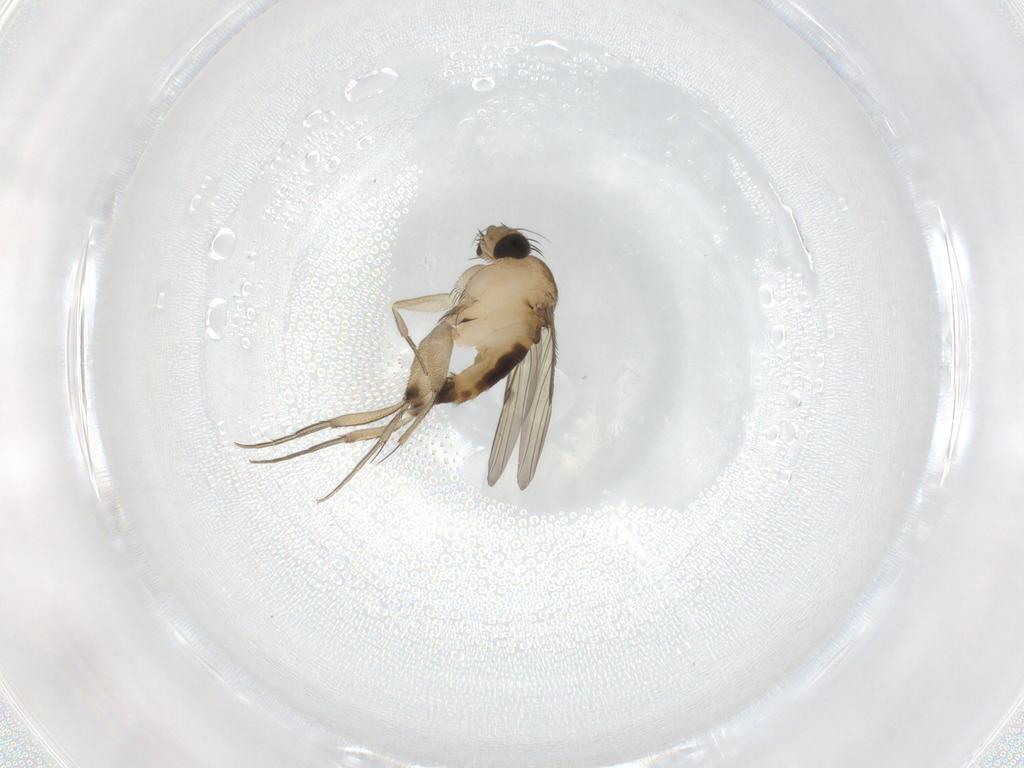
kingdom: Animalia
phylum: Arthropoda
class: Insecta
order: Diptera
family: Phoridae
